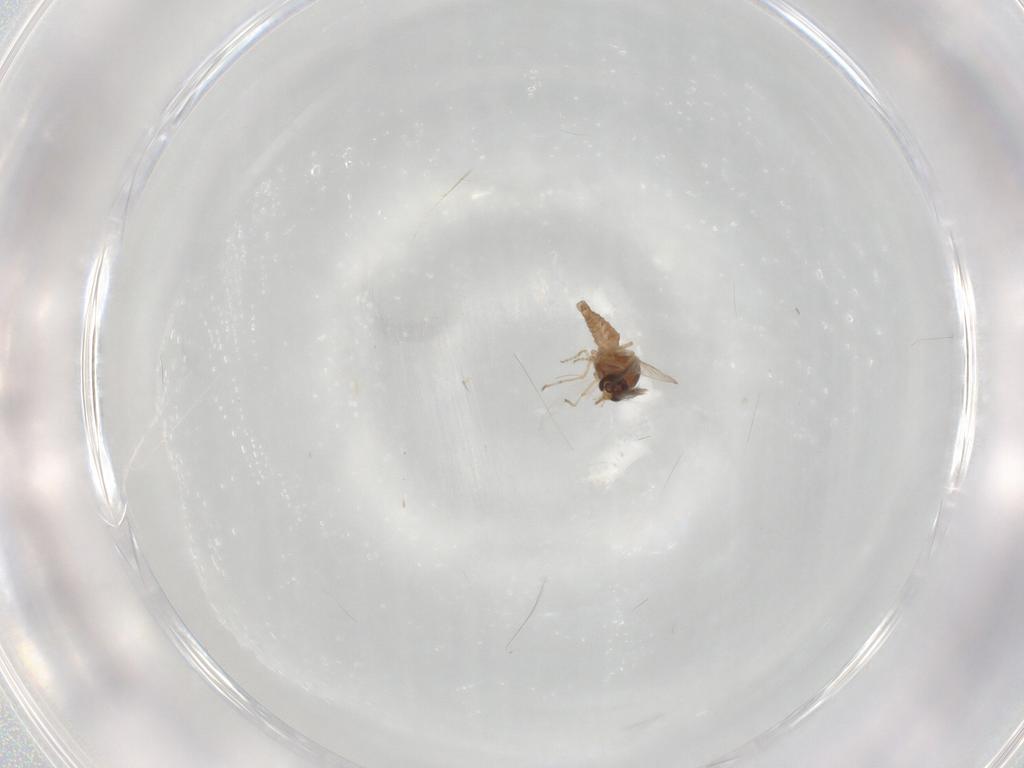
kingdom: Animalia
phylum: Arthropoda
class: Insecta
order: Diptera
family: Ceratopogonidae
